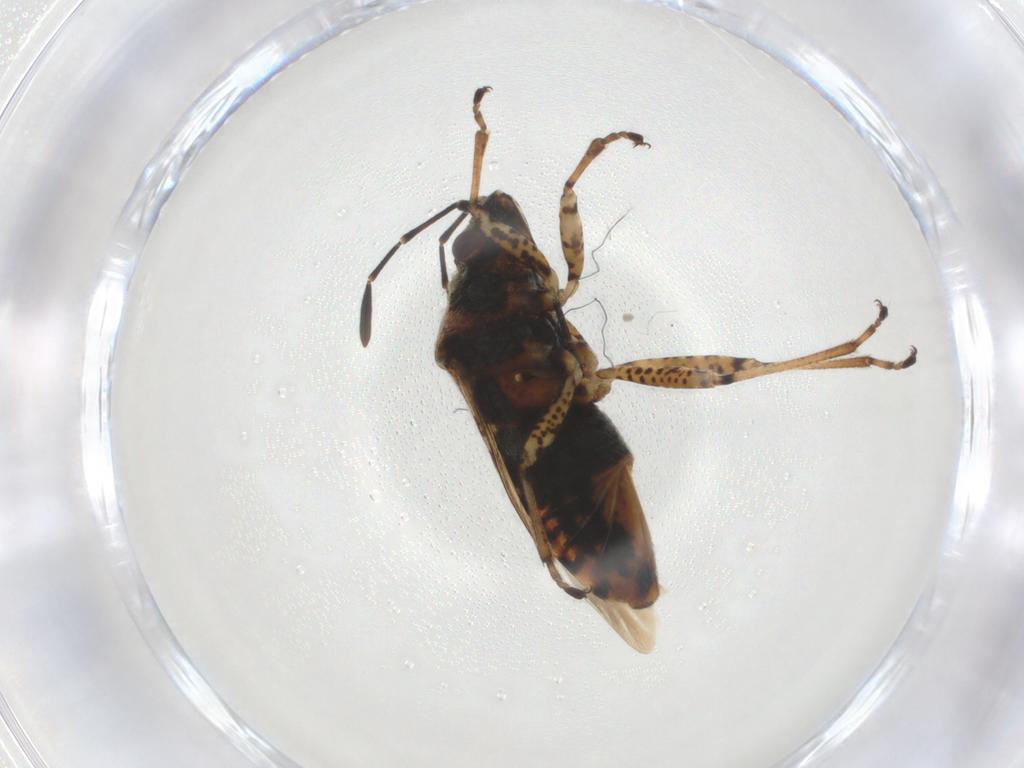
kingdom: Animalia
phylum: Arthropoda
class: Insecta
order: Hemiptera
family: Lygaeidae
